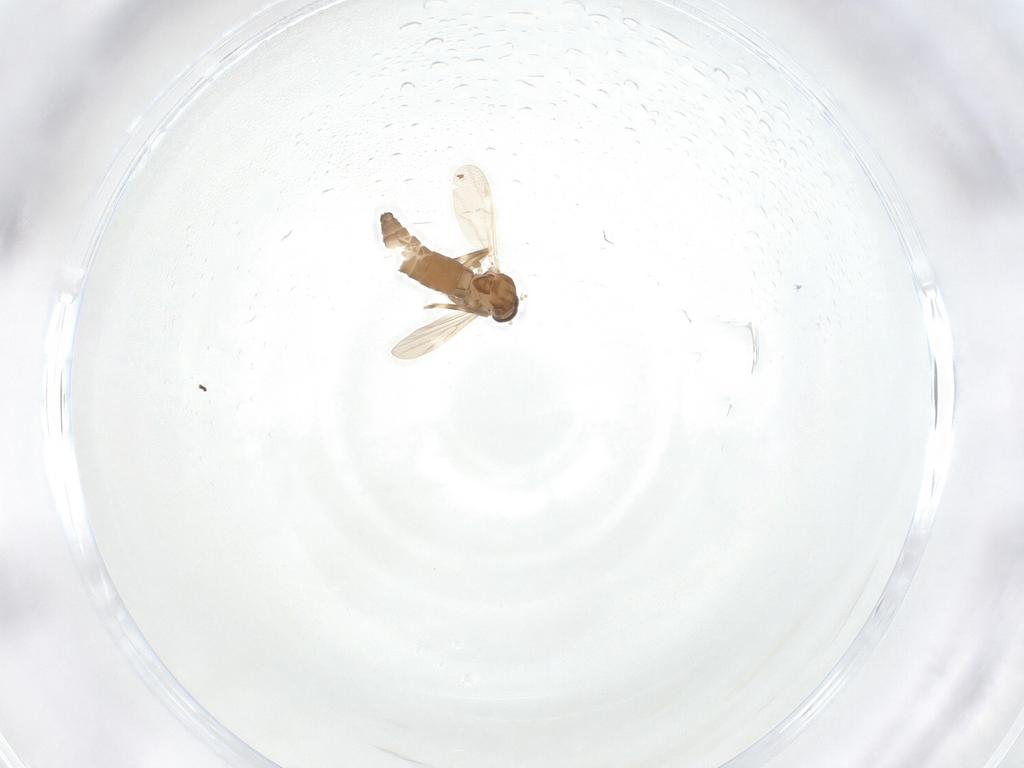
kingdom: Animalia
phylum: Arthropoda
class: Insecta
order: Diptera
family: Ceratopogonidae
